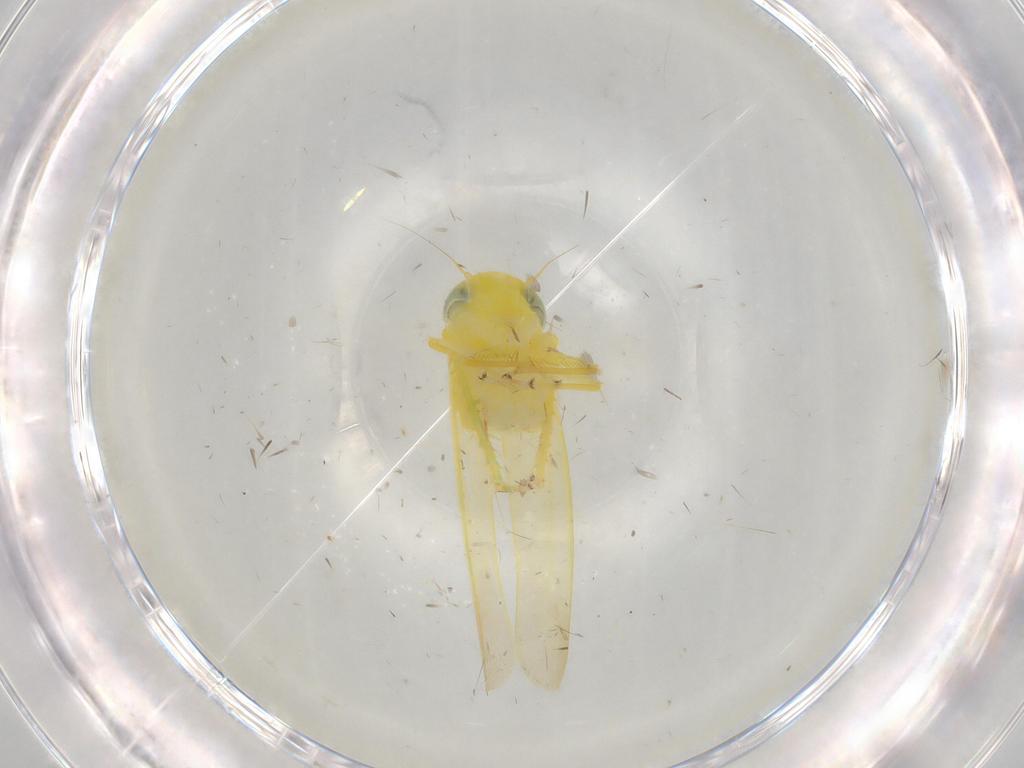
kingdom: Animalia
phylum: Arthropoda
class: Insecta
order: Hemiptera
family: Cicadellidae
